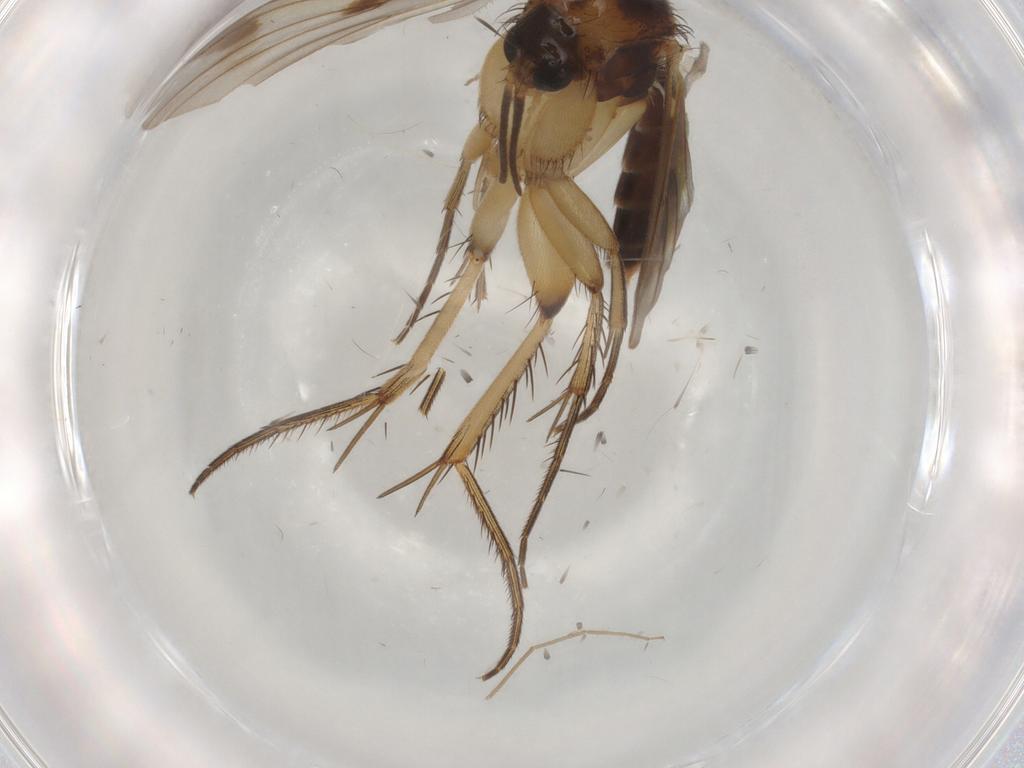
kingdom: Animalia
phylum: Arthropoda
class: Insecta
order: Diptera
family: Mycetophilidae
